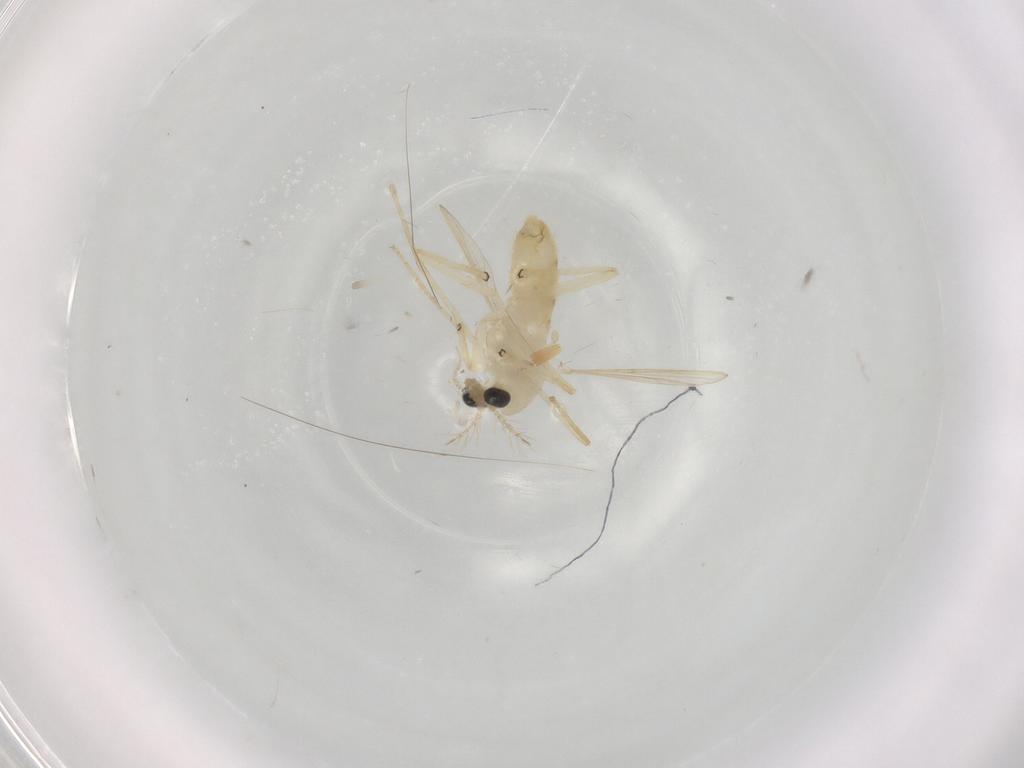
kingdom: Animalia
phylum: Arthropoda
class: Insecta
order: Diptera
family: Chironomidae
